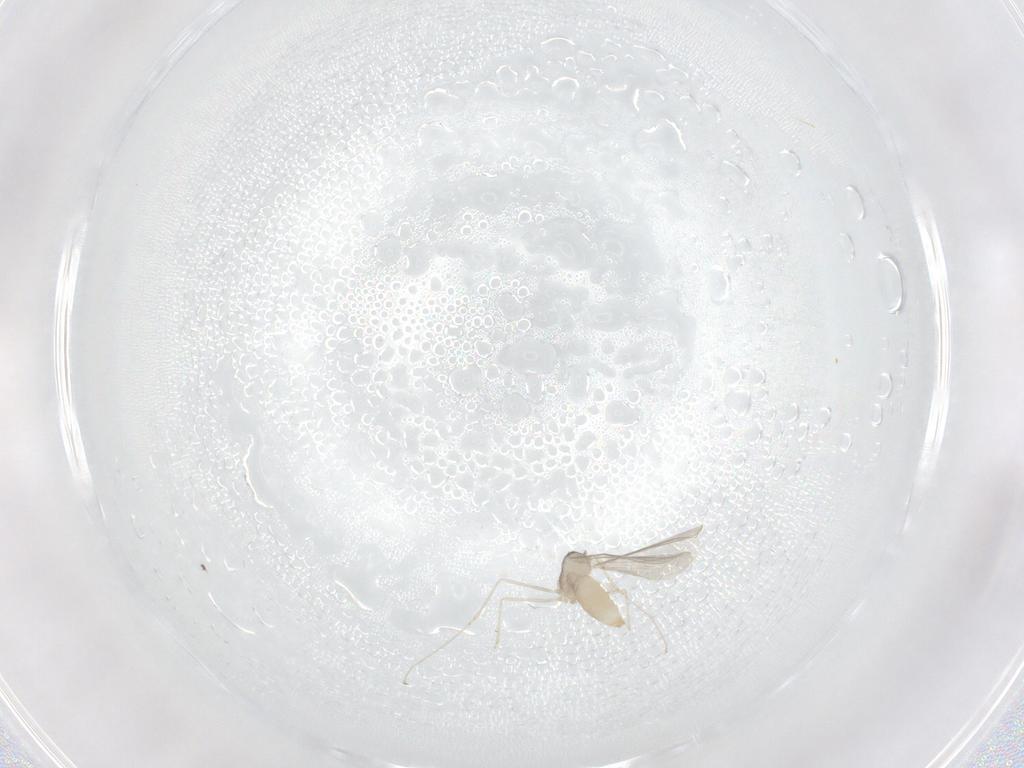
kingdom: Animalia
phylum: Arthropoda
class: Insecta
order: Diptera
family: Cecidomyiidae
